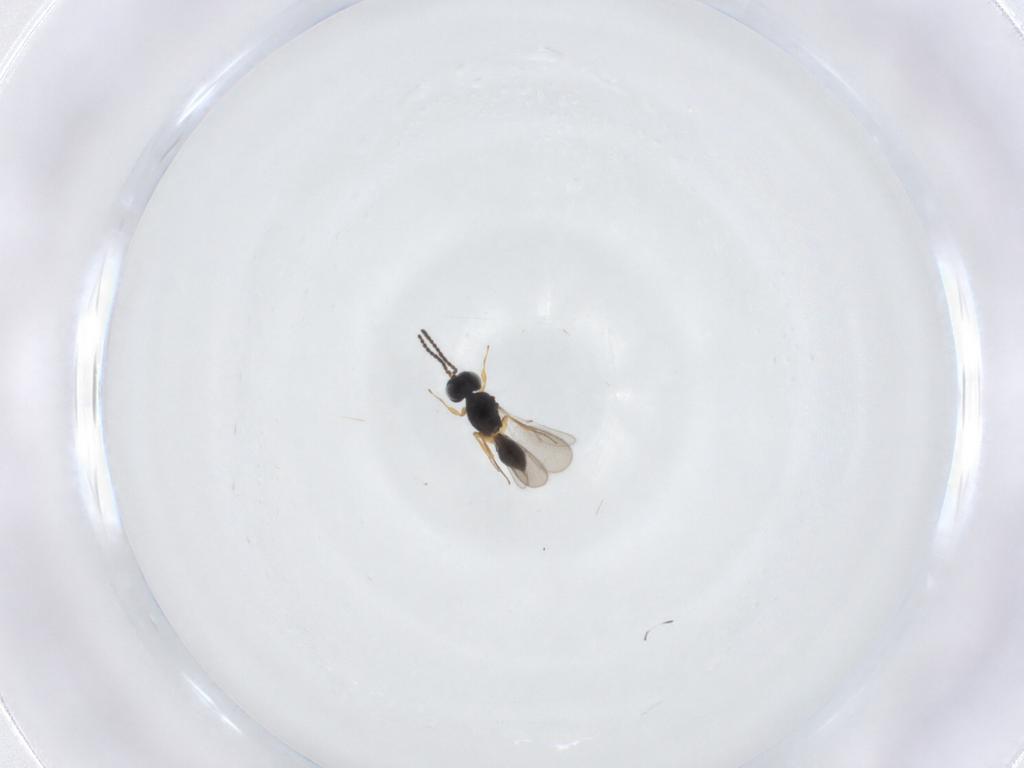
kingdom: Animalia
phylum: Arthropoda
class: Insecta
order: Hymenoptera
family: Scelionidae
